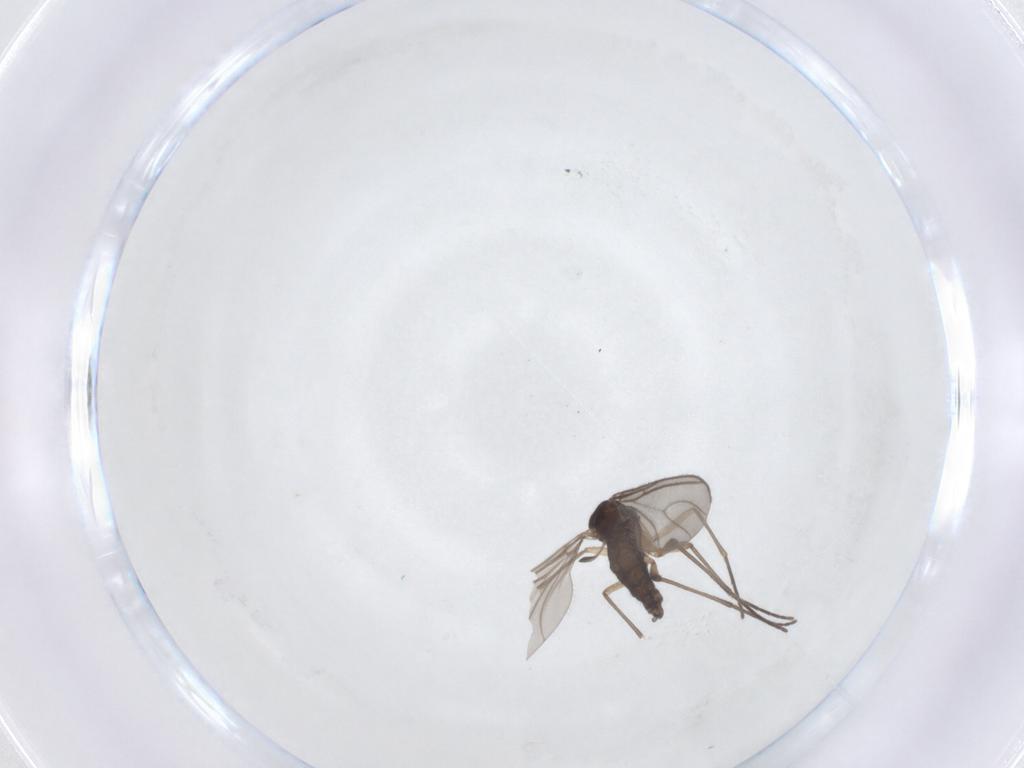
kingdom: Animalia
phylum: Arthropoda
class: Insecta
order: Diptera
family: Sciaridae
